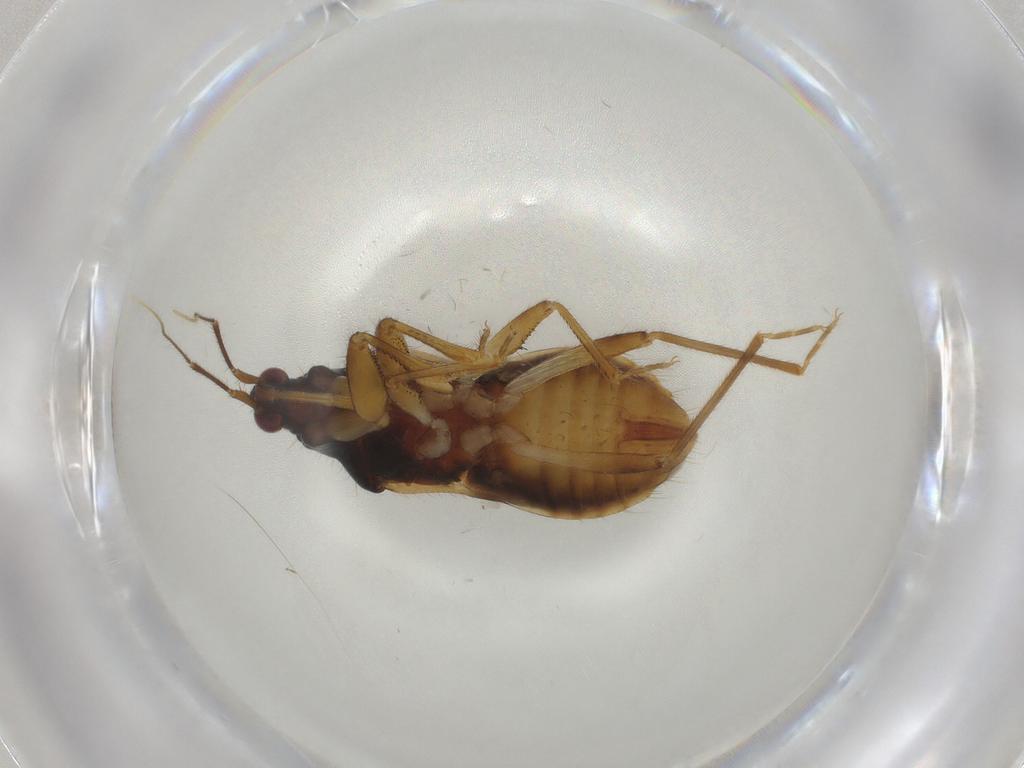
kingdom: Animalia
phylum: Arthropoda
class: Insecta
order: Hemiptera
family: Nabidae
